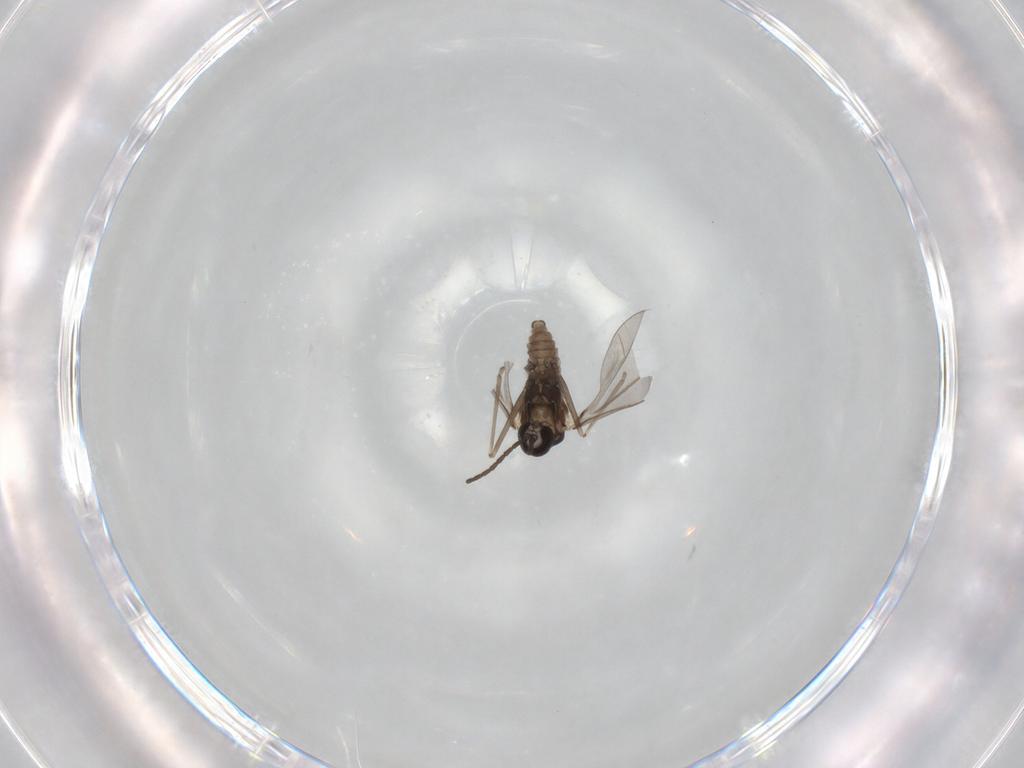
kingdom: Animalia
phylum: Arthropoda
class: Insecta
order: Diptera
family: Cecidomyiidae
